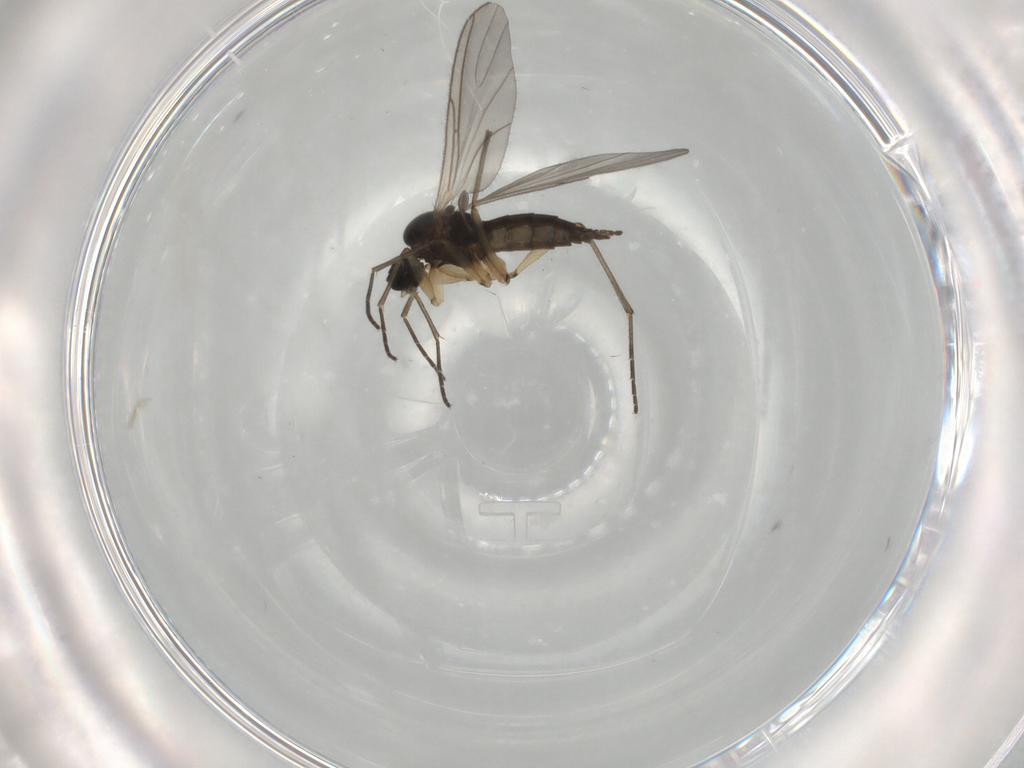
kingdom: Animalia
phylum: Arthropoda
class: Insecta
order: Diptera
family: Sciaridae
